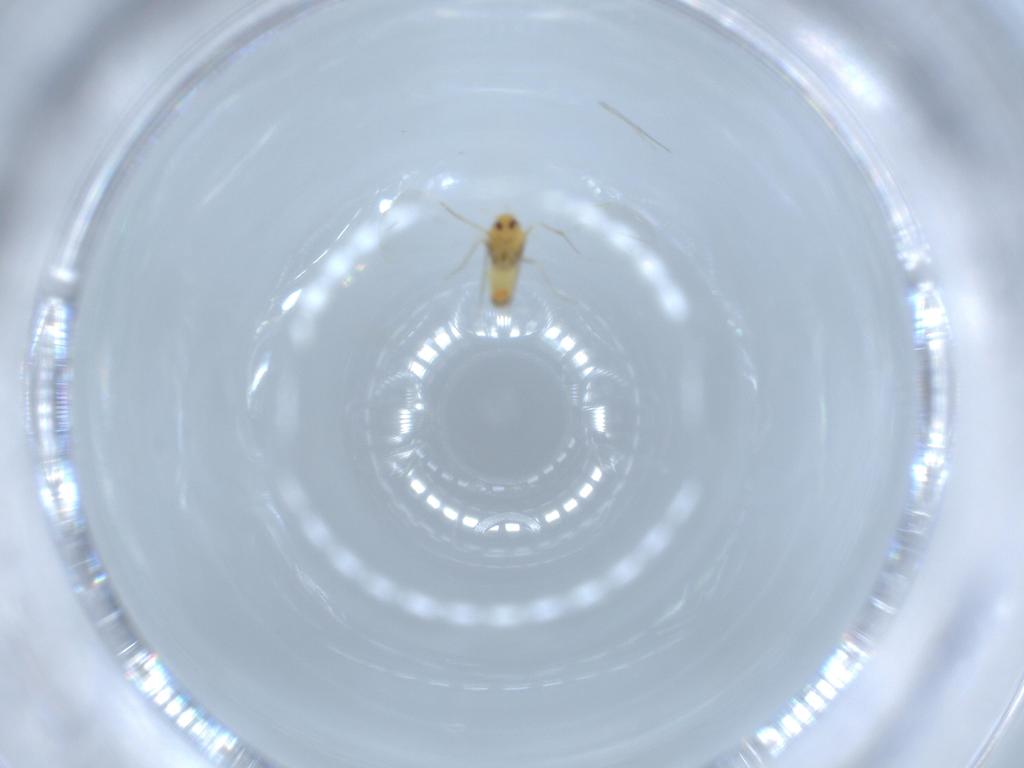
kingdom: Animalia
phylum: Arthropoda
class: Insecta
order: Hemiptera
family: Aleyrodidae
